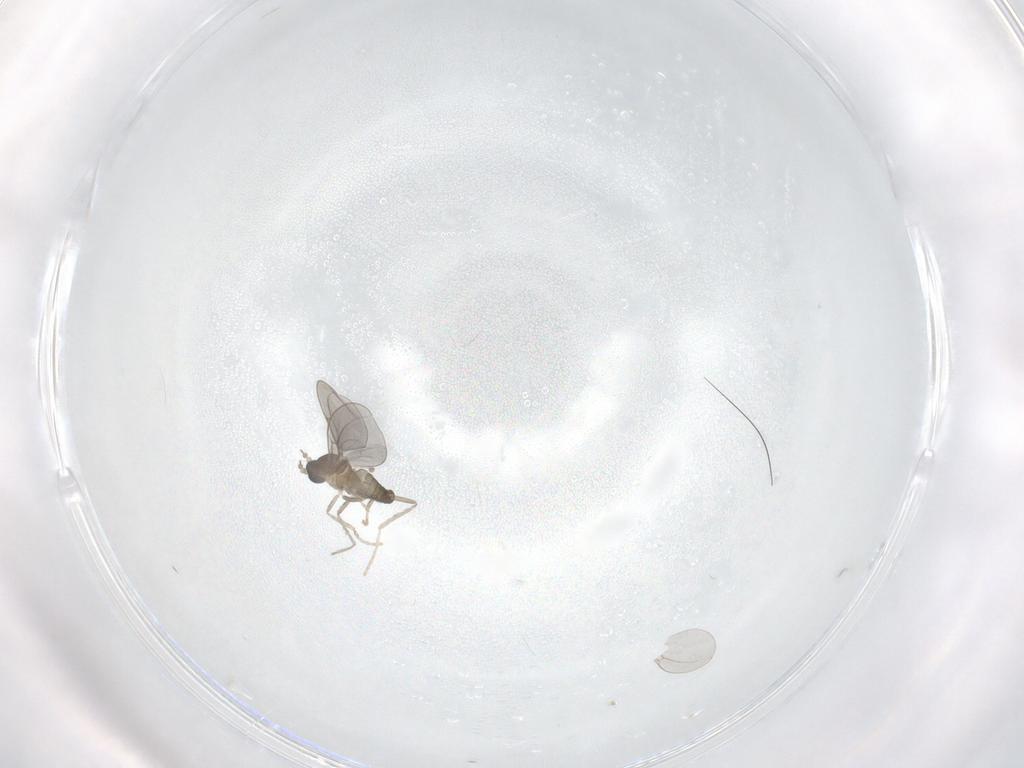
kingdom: Animalia
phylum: Arthropoda
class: Insecta
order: Diptera
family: Cecidomyiidae
